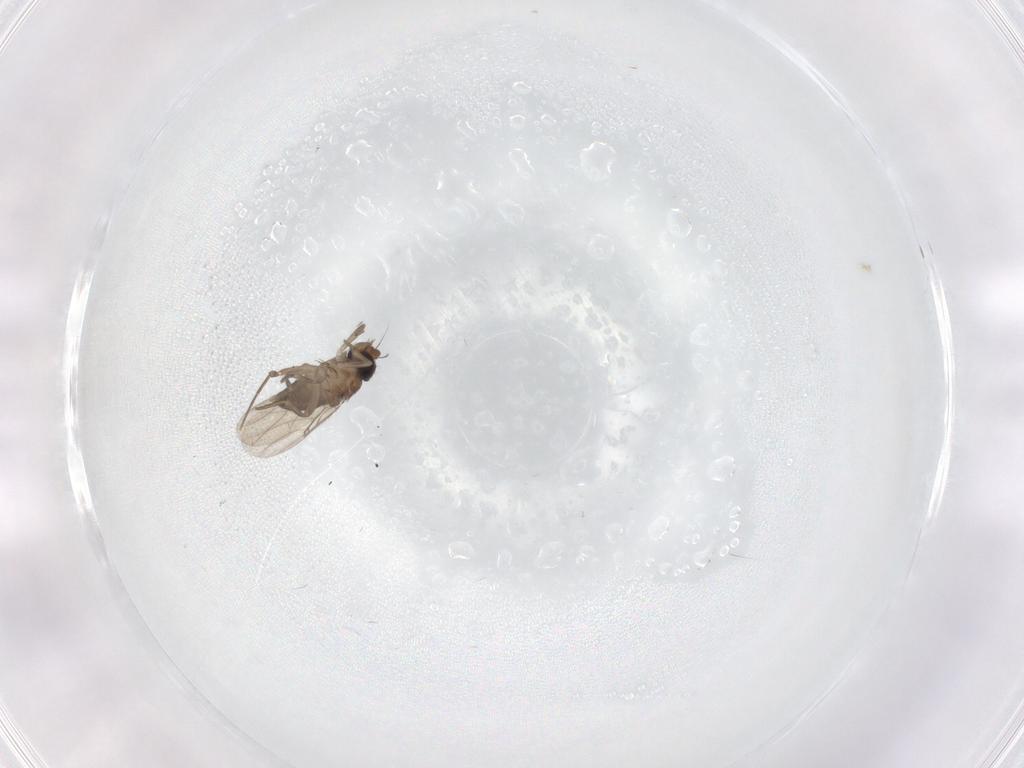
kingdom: Animalia
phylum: Arthropoda
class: Insecta
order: Diptera
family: Phoridae
